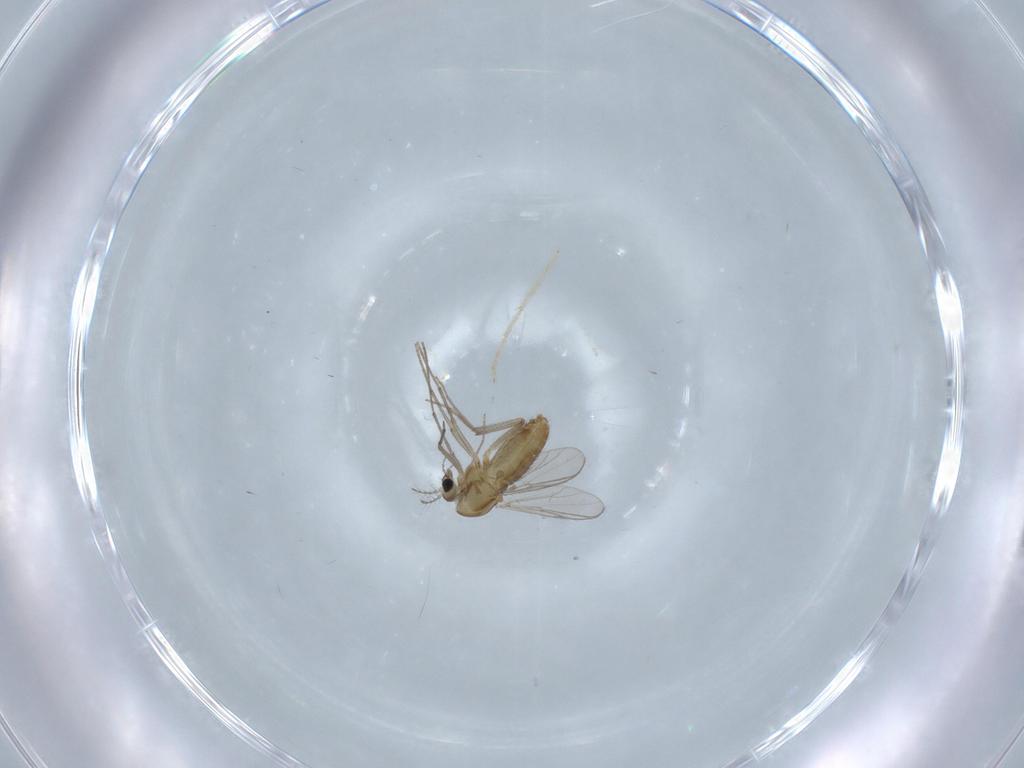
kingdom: Animalia
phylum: Arthropoda
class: Insecta
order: Diptera
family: Chironomidae
